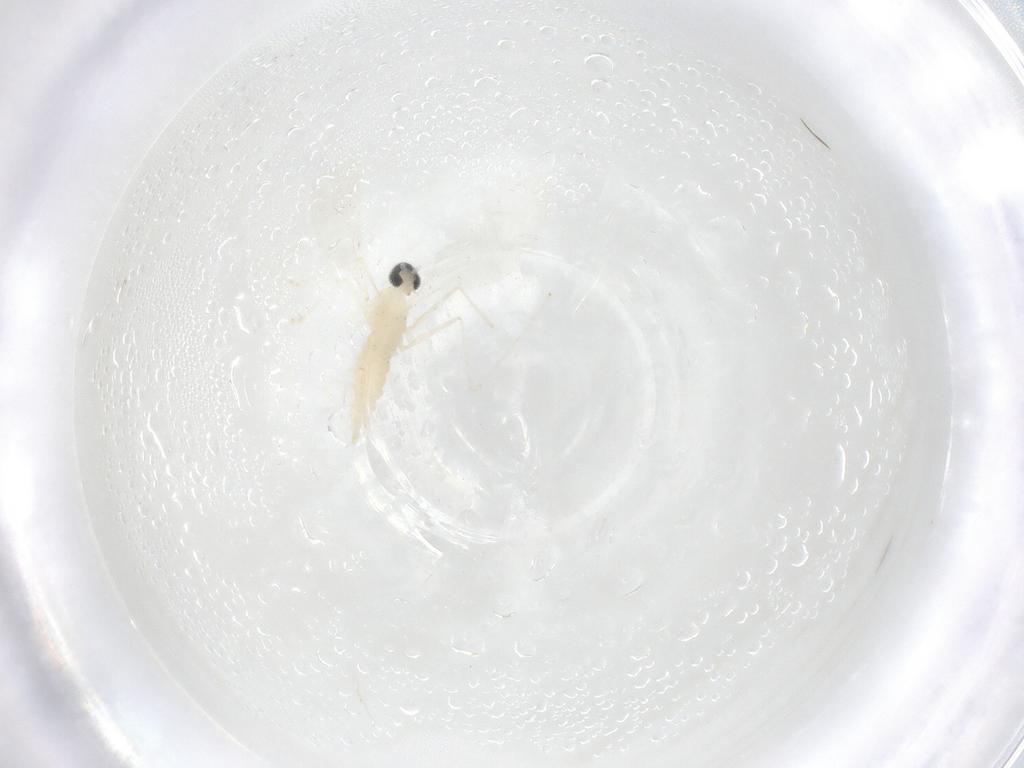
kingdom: Animalia
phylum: Arthropoda
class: Insecta
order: Diptera
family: Cecidomyiidae
